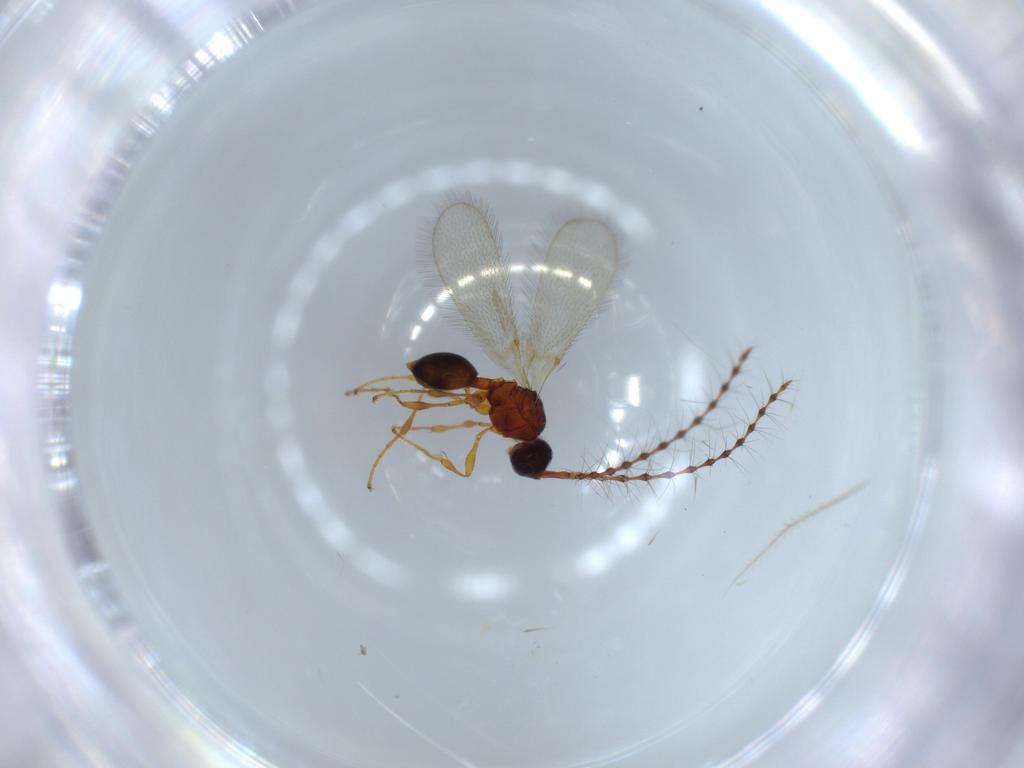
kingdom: Animalia
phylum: Arthropoda
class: Insecta
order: Hymenoptera
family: Diapriidae
